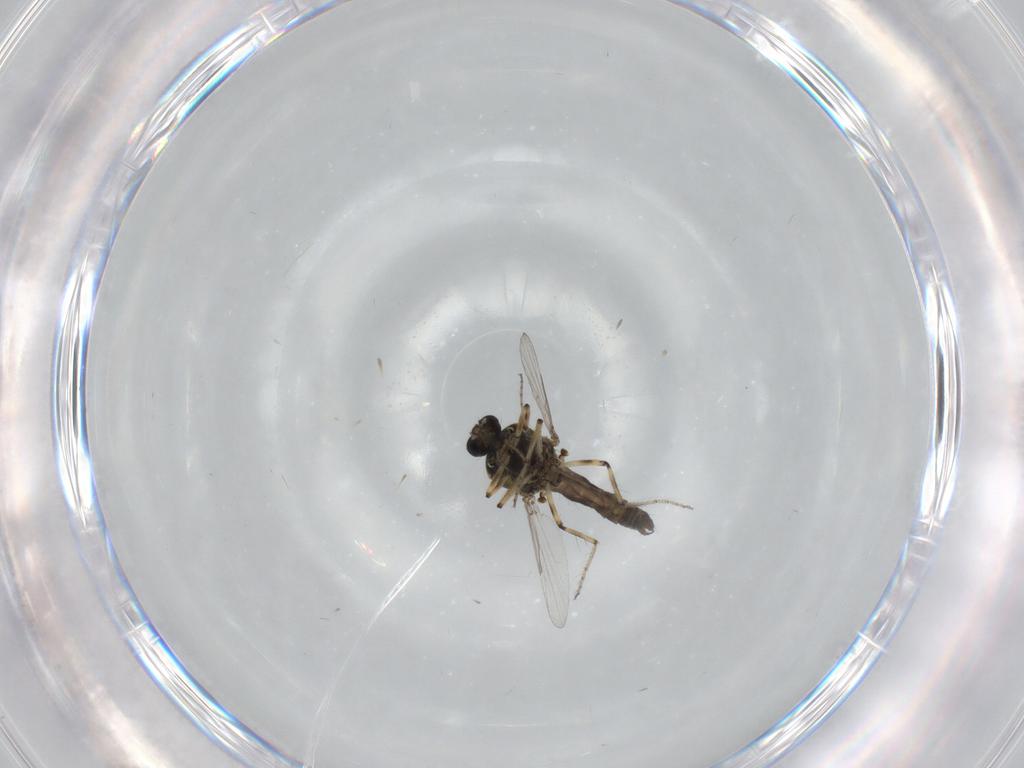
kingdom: Animalia
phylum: Arthropoda
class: Insecta
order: Diptera
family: Ceratopogonidae
